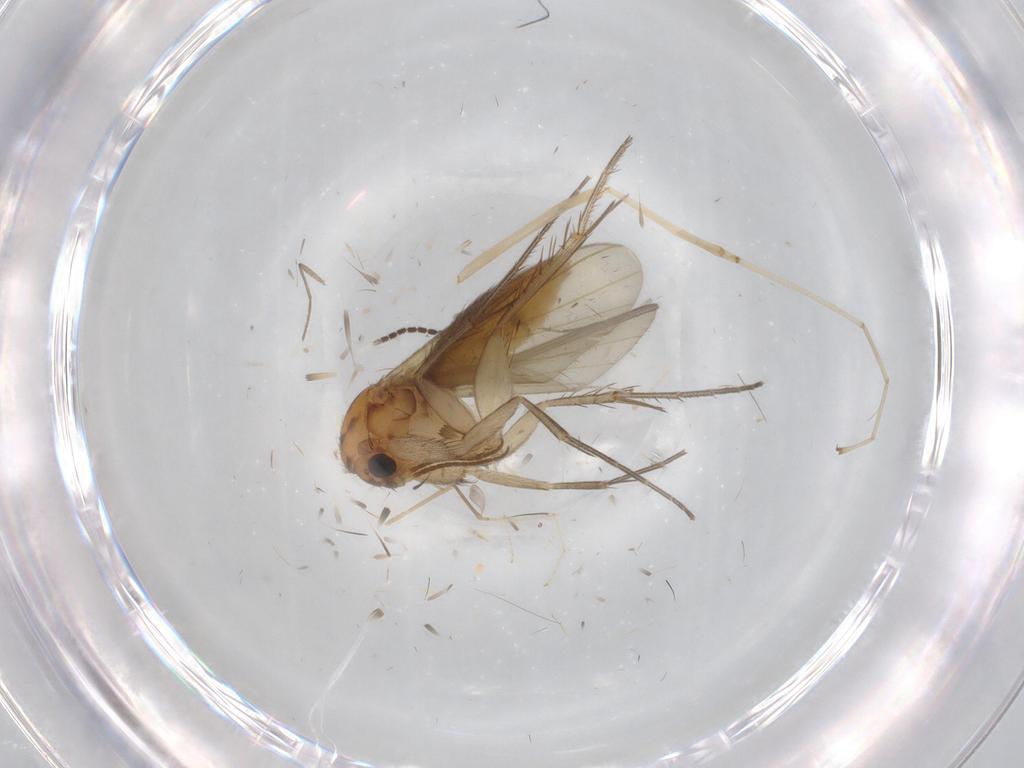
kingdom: Animalia
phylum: Arthropoda
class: Insecta
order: Diptera
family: Mycetophilidae
